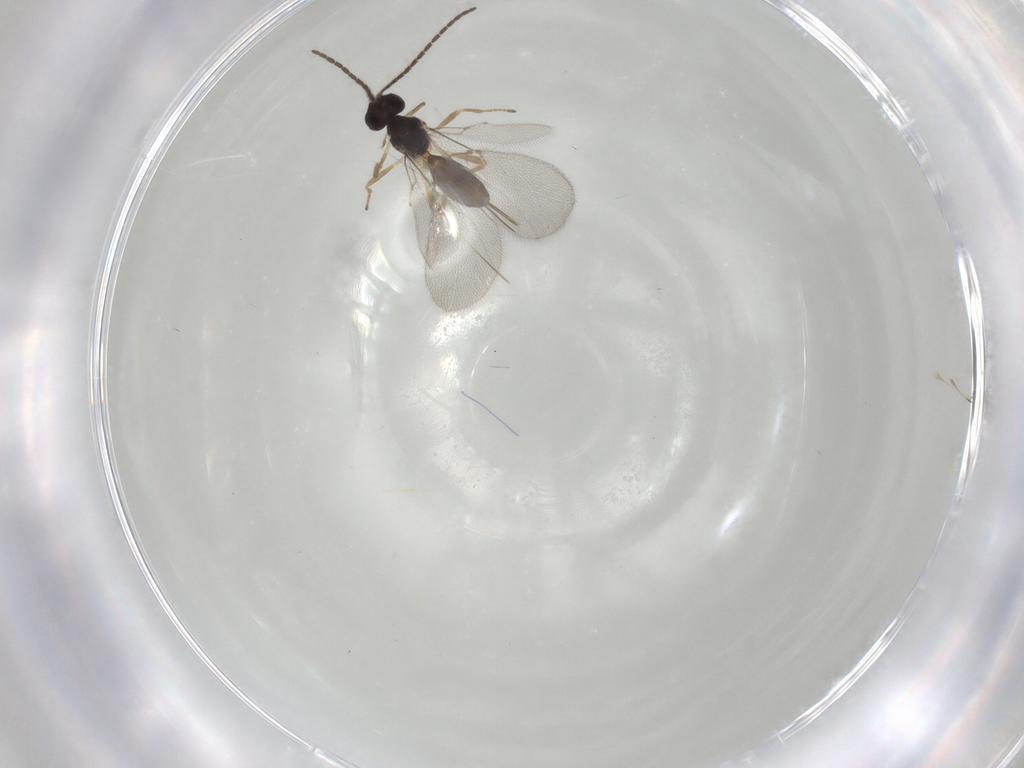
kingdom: Animalia
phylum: Arthropoda
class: Insecta
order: Hymenoptera
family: Braconidae
